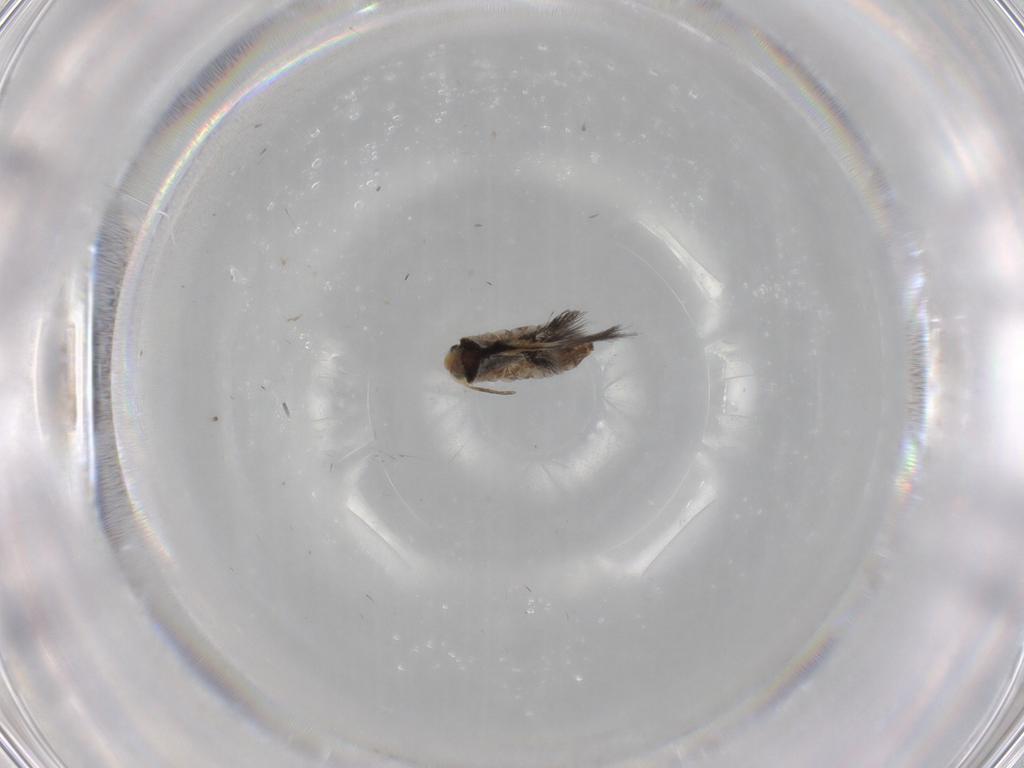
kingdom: Animalia
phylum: Arthropoda
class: Insecta
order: Lepidoptera
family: Nepticulidae
